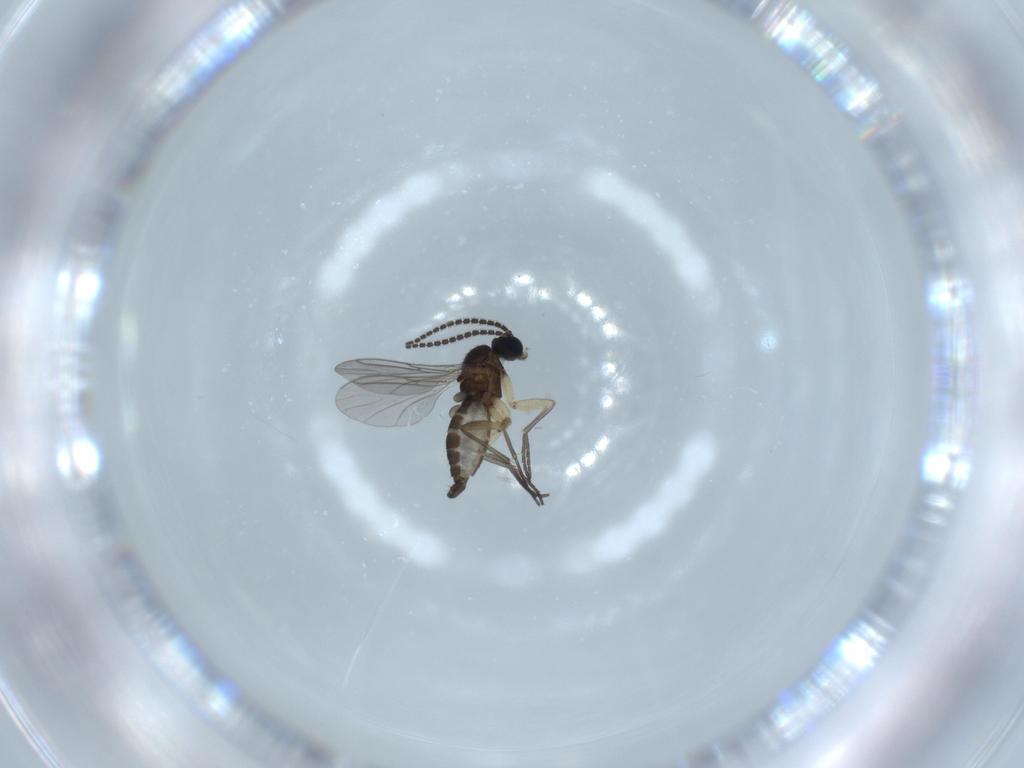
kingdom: Animalia
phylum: Arthropoda
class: Insecta
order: Diptera
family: Sciaridae
